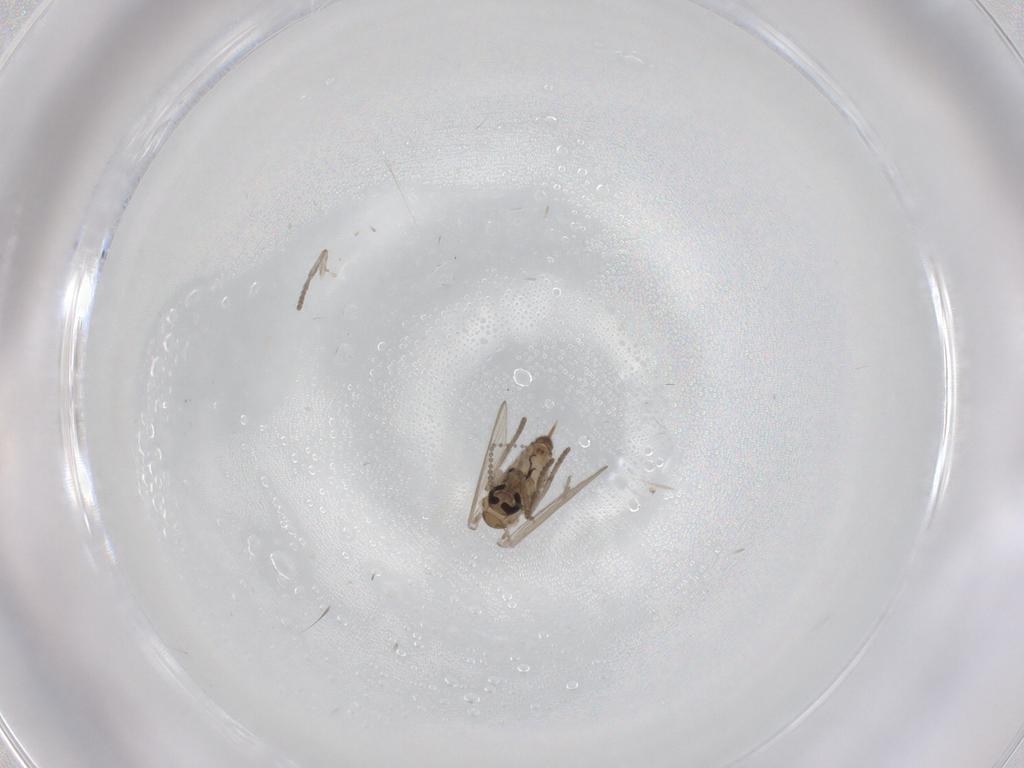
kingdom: Animalia
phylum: Arthropoda
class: Insecta
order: Diptera
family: Psychodidae
